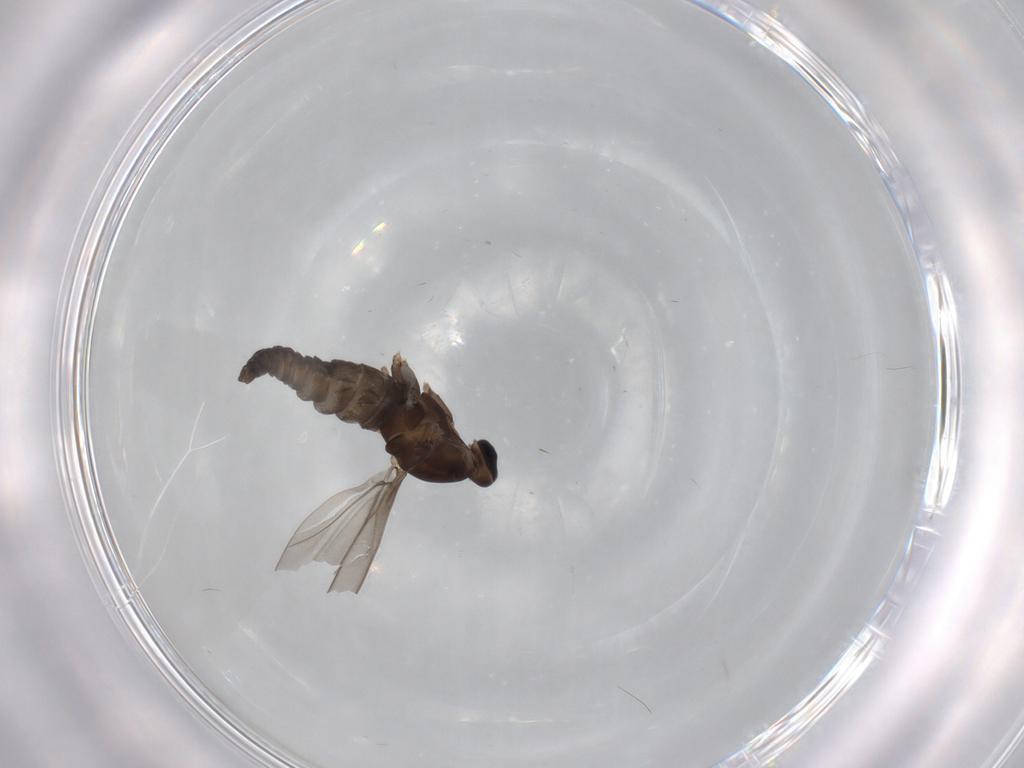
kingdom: Animalia
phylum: Arthropoda
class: Insecta
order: Diptera
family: Cecidomyiidae
